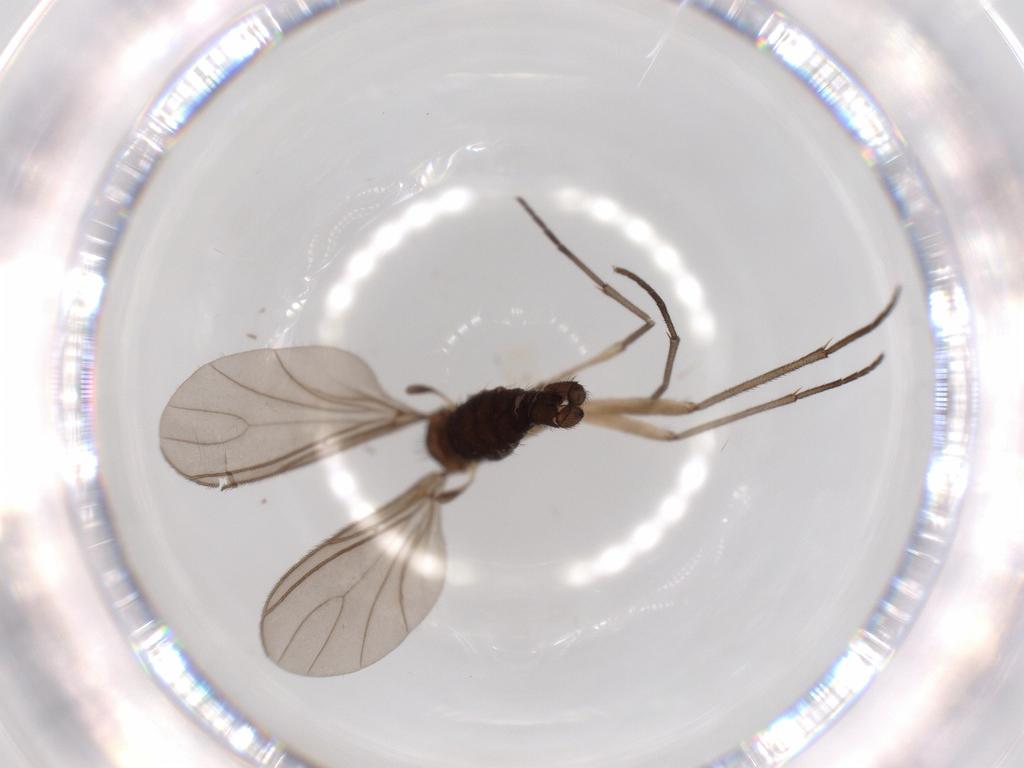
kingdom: Animalia
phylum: Arthropoda
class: Insecta
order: Diptera
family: Sciaridae
